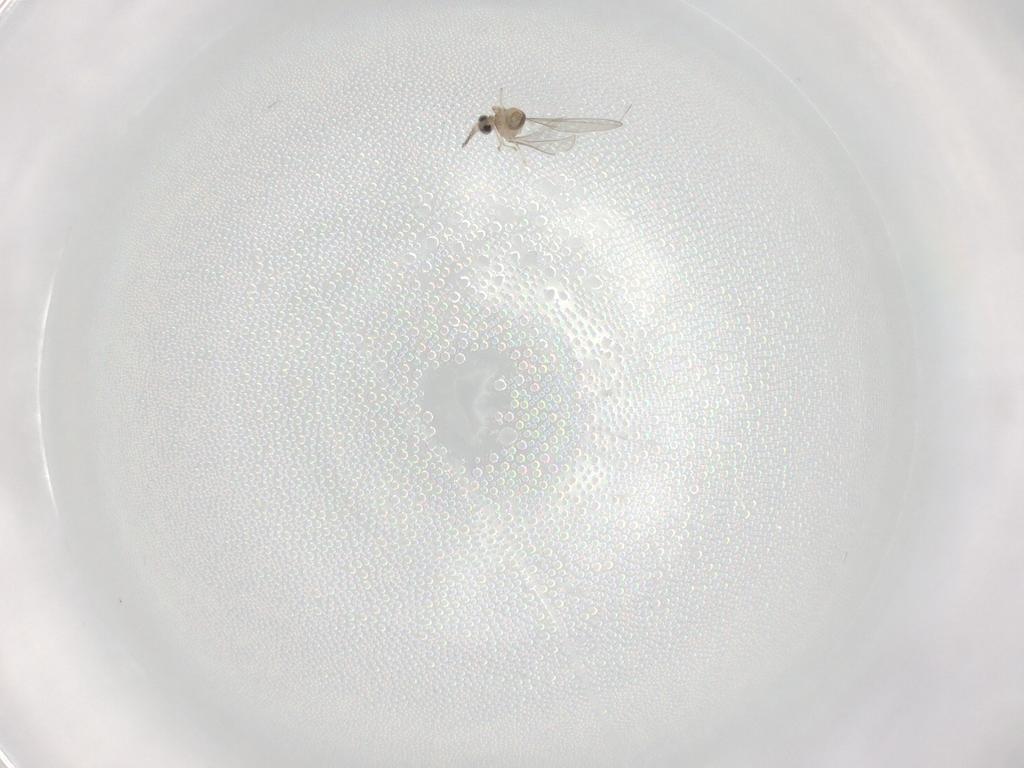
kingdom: Animalia
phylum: Arthropoda
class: Insecta
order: Diptera
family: Cecidomyiidae
